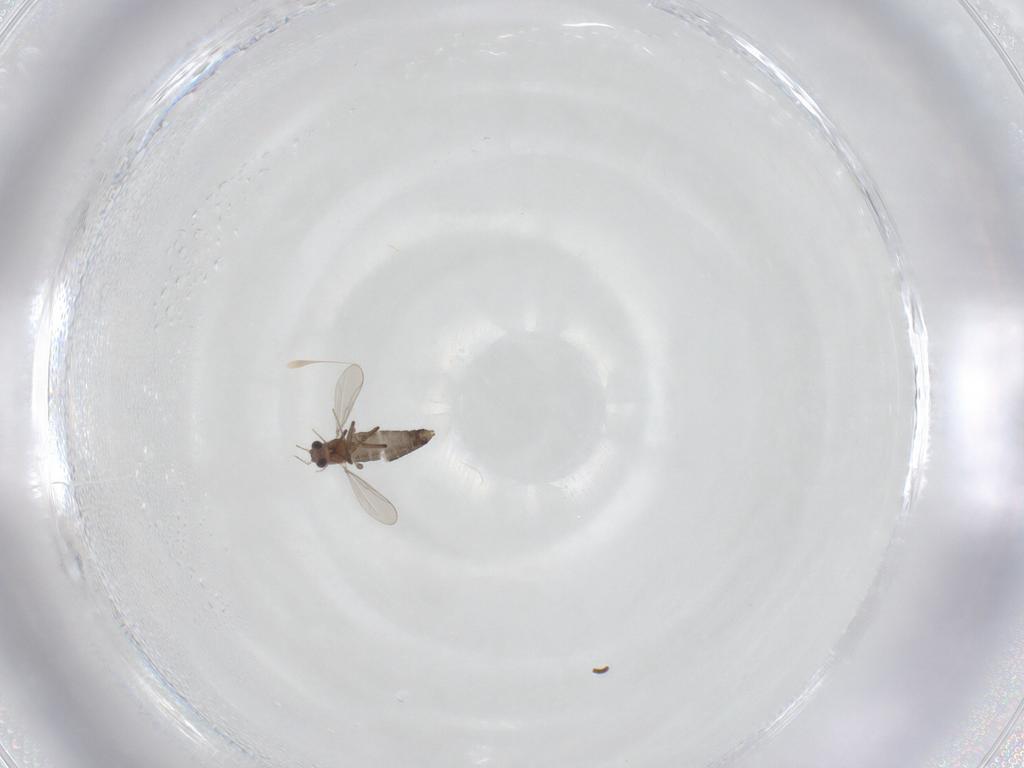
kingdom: Animalia
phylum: Arthropoda
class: Insecta
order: Diptera
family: Chironomidae
